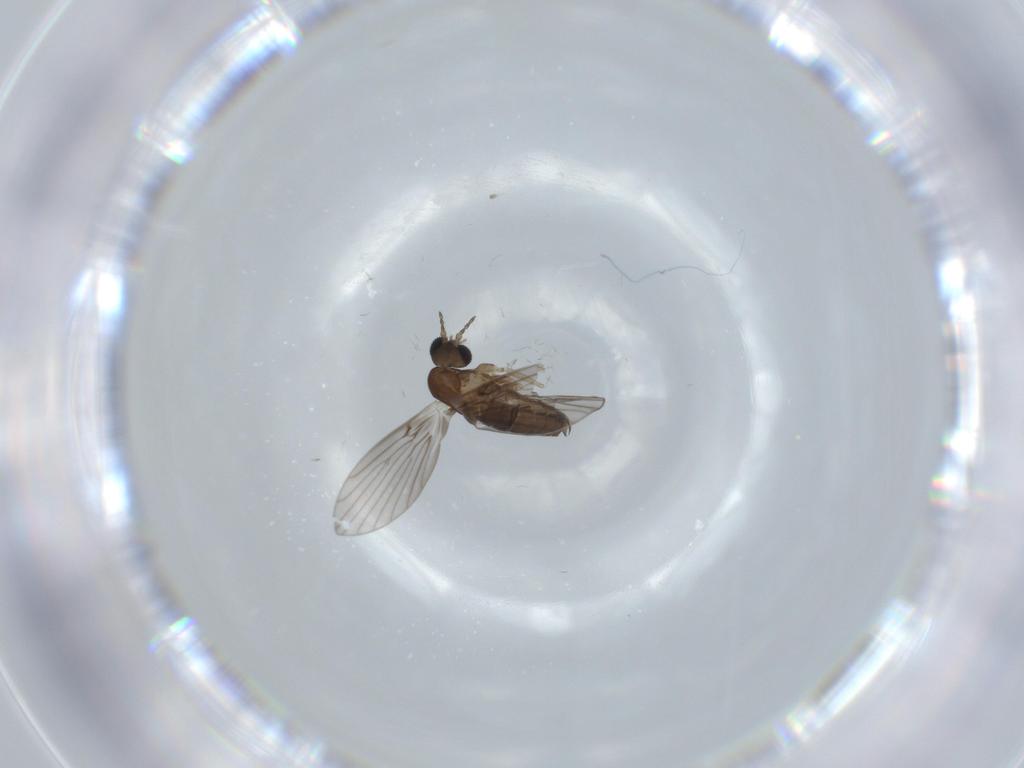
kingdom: Animalia
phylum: Arthropoda
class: Insecta
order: Diptera
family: Psychodidae
